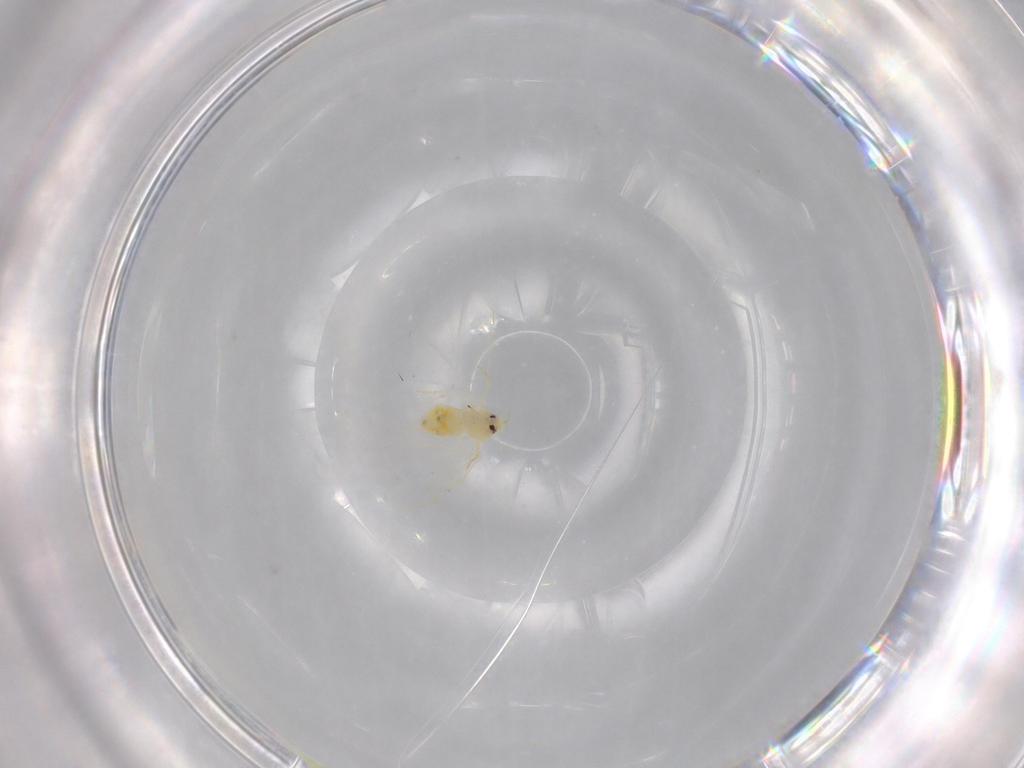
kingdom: Animalia
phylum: Arthropoda
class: Insecta
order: Hemiptera
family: Aleyrodidae
